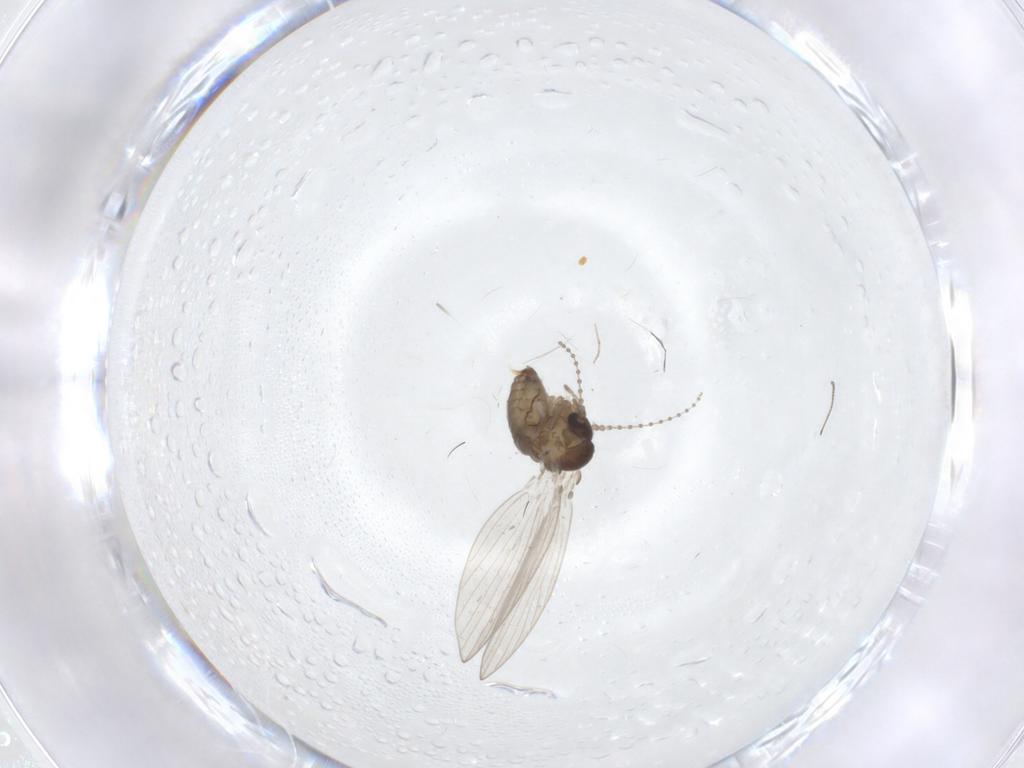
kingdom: Animalia
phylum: Arthropoda
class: Insecta
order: Diptera
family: Psychodidae
